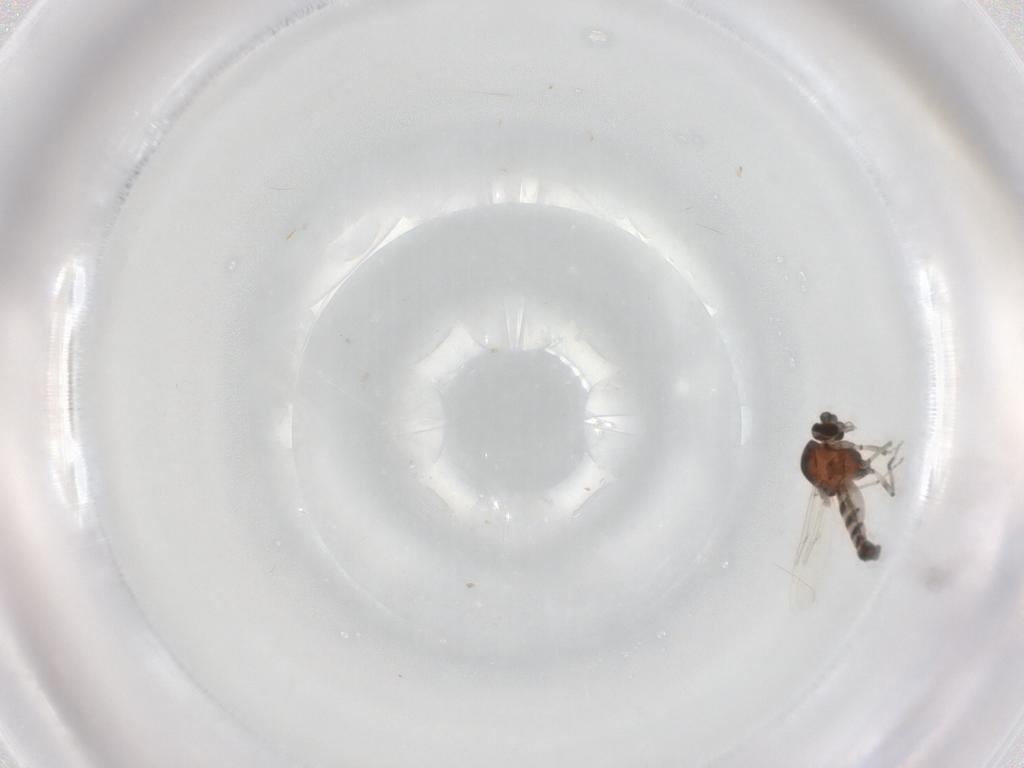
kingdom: Animalia
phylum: Arthropoda
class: Insecta
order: Diptera
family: Ceratopogonidae
